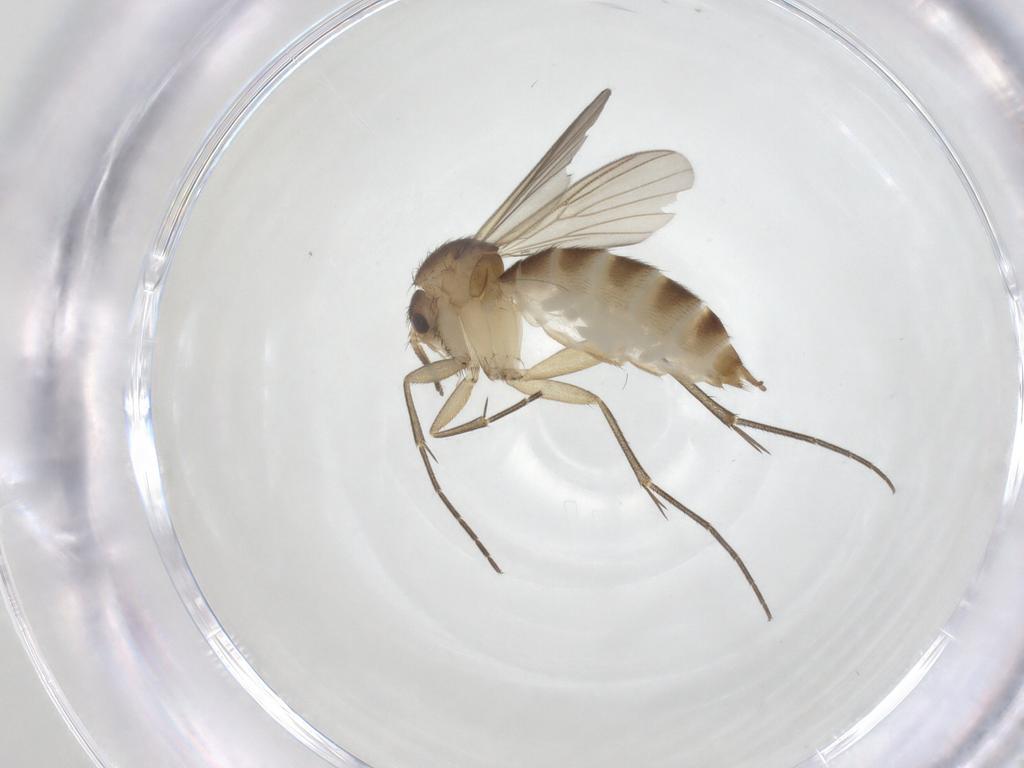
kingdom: Animalia
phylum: Arthropoda
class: Insecta
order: Diptera
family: Mycetophilidae
